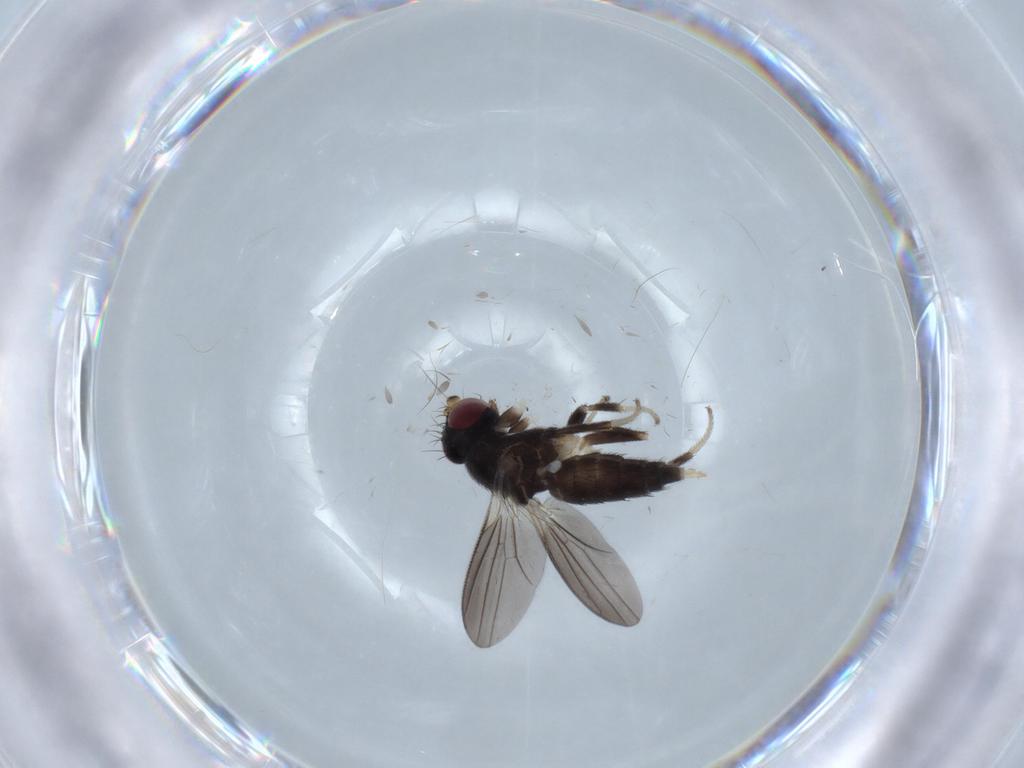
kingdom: Animalia
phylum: Arthropoda
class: Insecta
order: Diptera
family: Clusiidae
